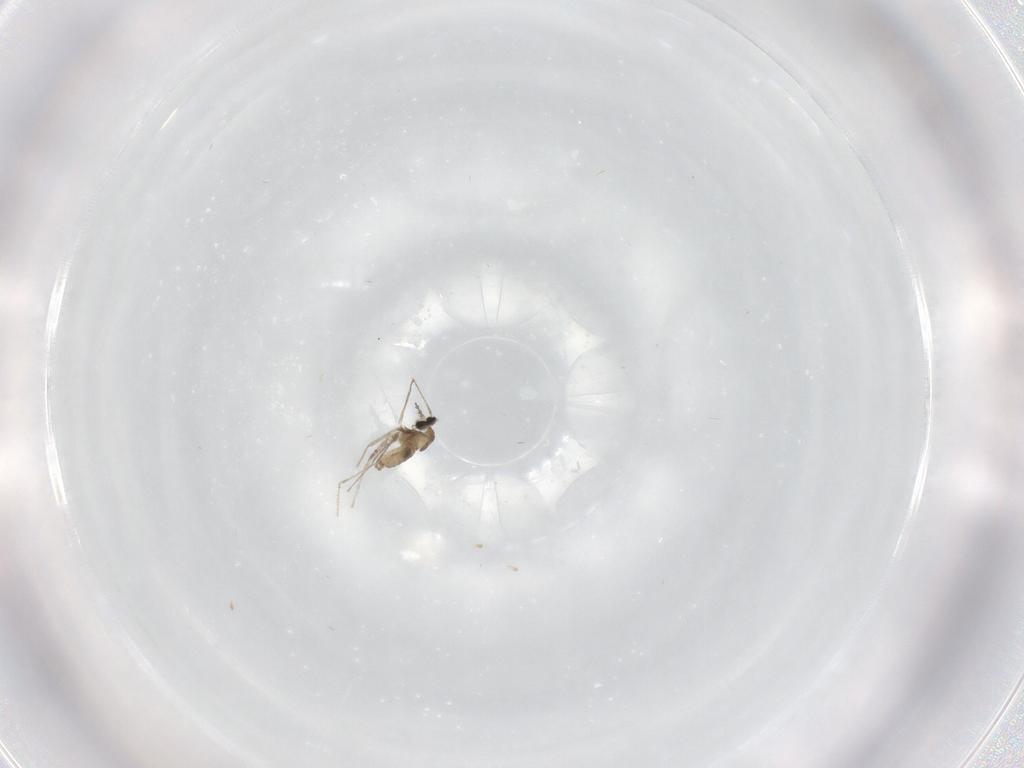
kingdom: Animalia
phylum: Arthropoda
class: Insecta
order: Diptera
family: Cecidomyiidae
